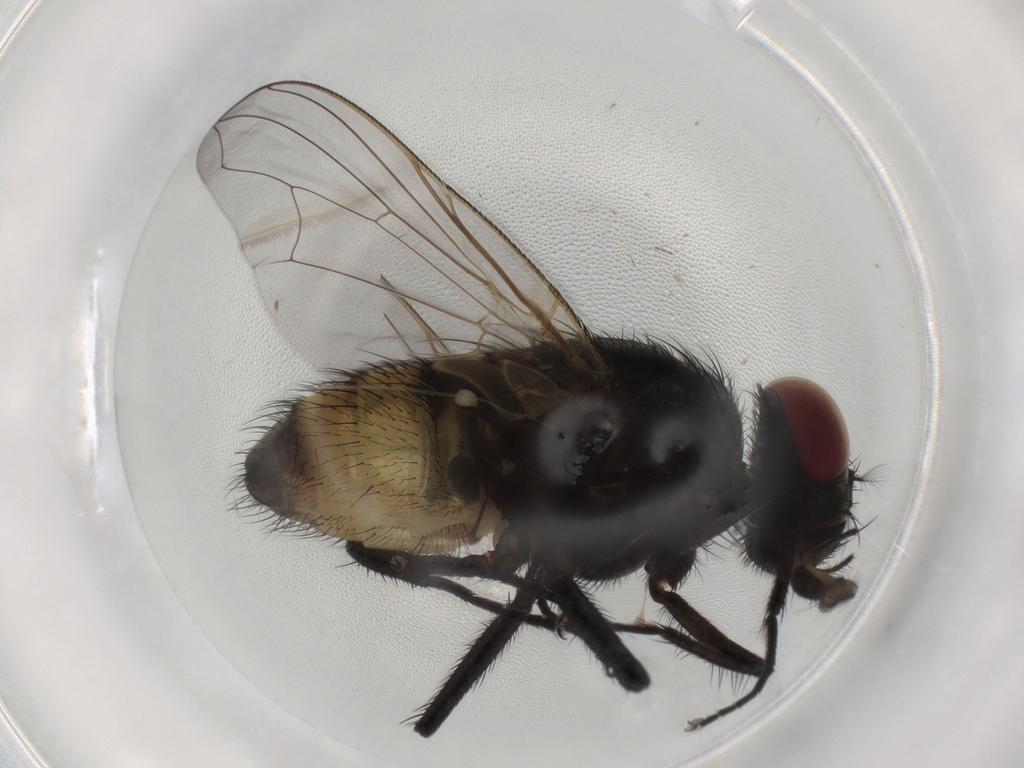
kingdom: Animalia
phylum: Arthropoda
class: Insecta
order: Diptera
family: Muscidae
